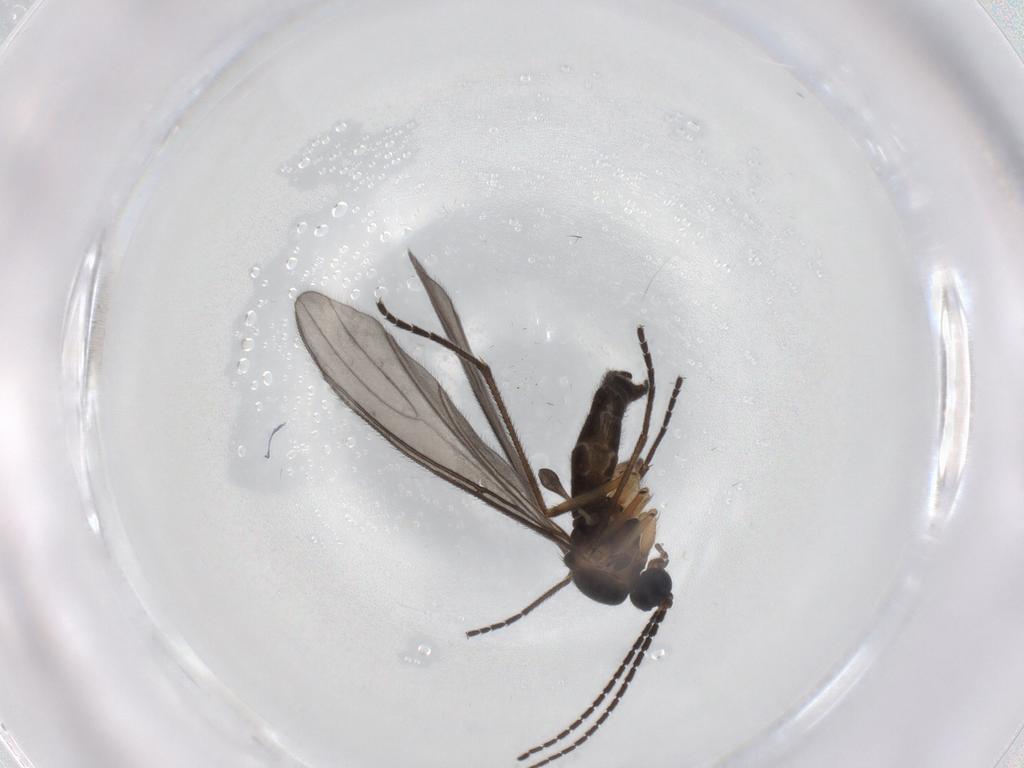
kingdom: Animalia
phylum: Arthropoda
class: Insecta
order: Diptera
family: Sciaridae
